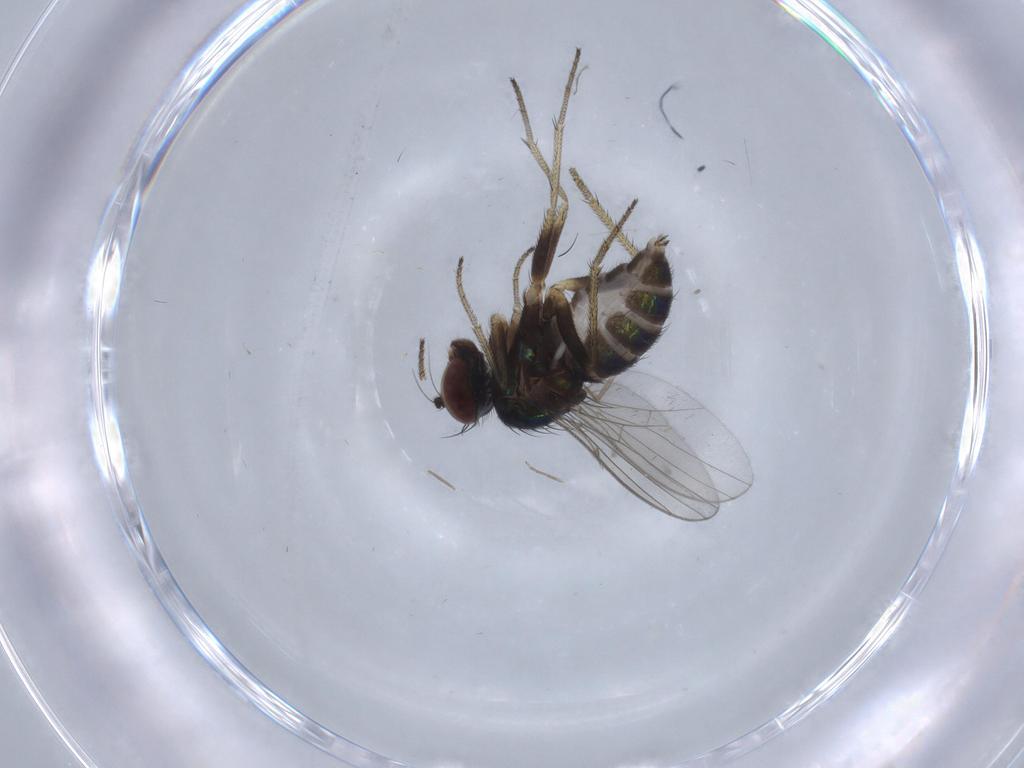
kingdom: Animalia
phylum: Arthropoda
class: Insecta
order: Diptera
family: Dolichopodidae
